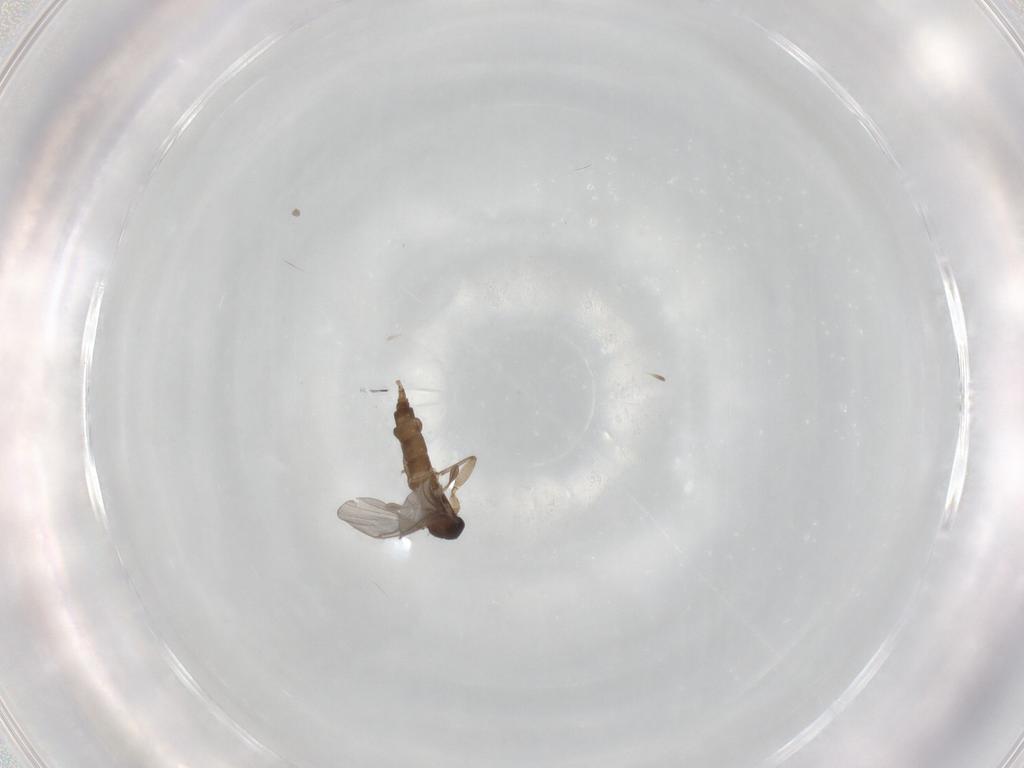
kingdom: Animalia
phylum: Arthropoda
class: Insecta
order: Diptera
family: Sciaridae
